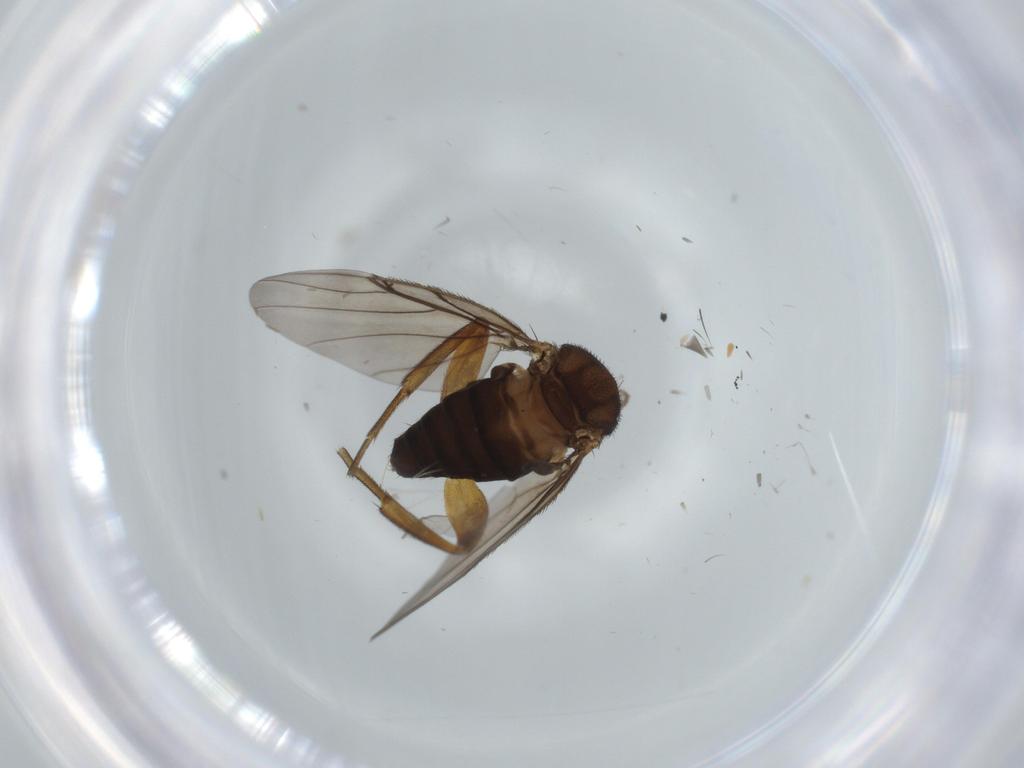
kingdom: Animalia
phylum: Arthropoda
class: Insecta
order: Diptera
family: Sciaridae
